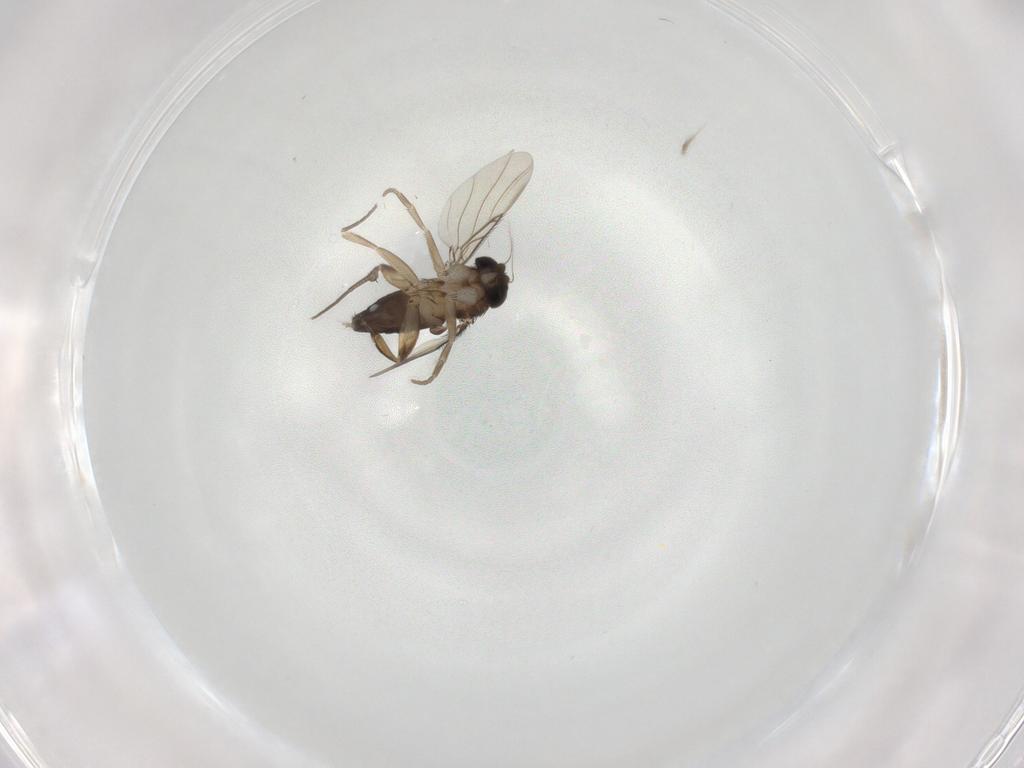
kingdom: Animalia
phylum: Arthropoda
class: Insecta
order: Diptera
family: Phoridae
